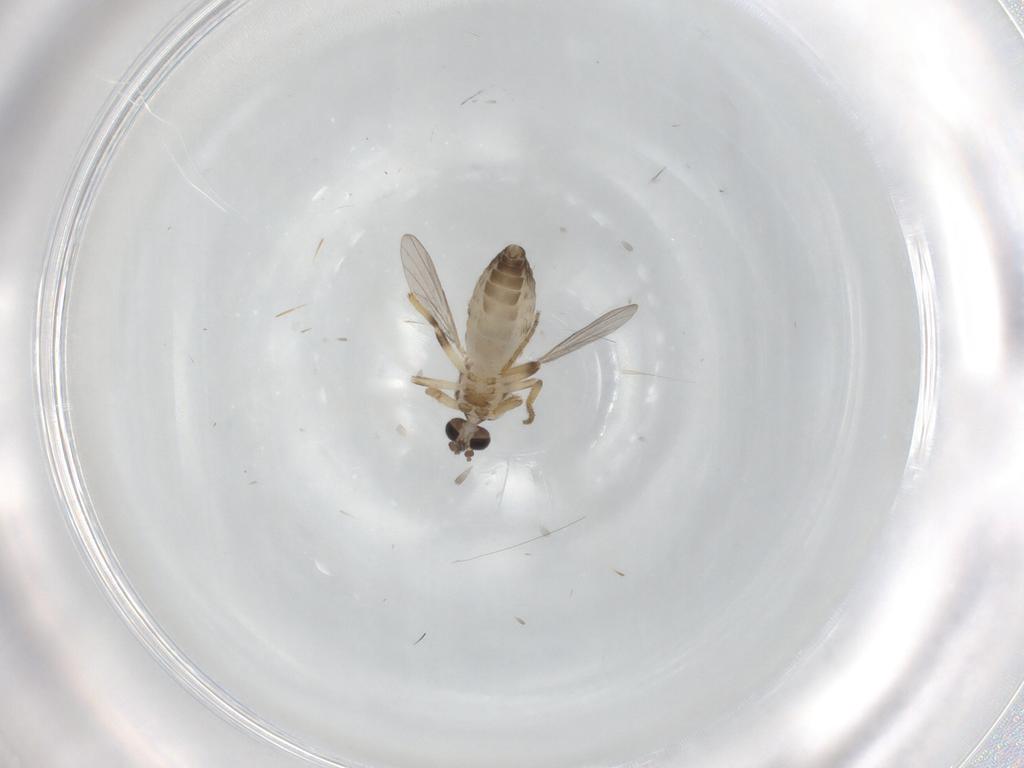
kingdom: Animalia
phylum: Arthropoda
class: Insecta
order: Diptera
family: Ceratopogonidae
